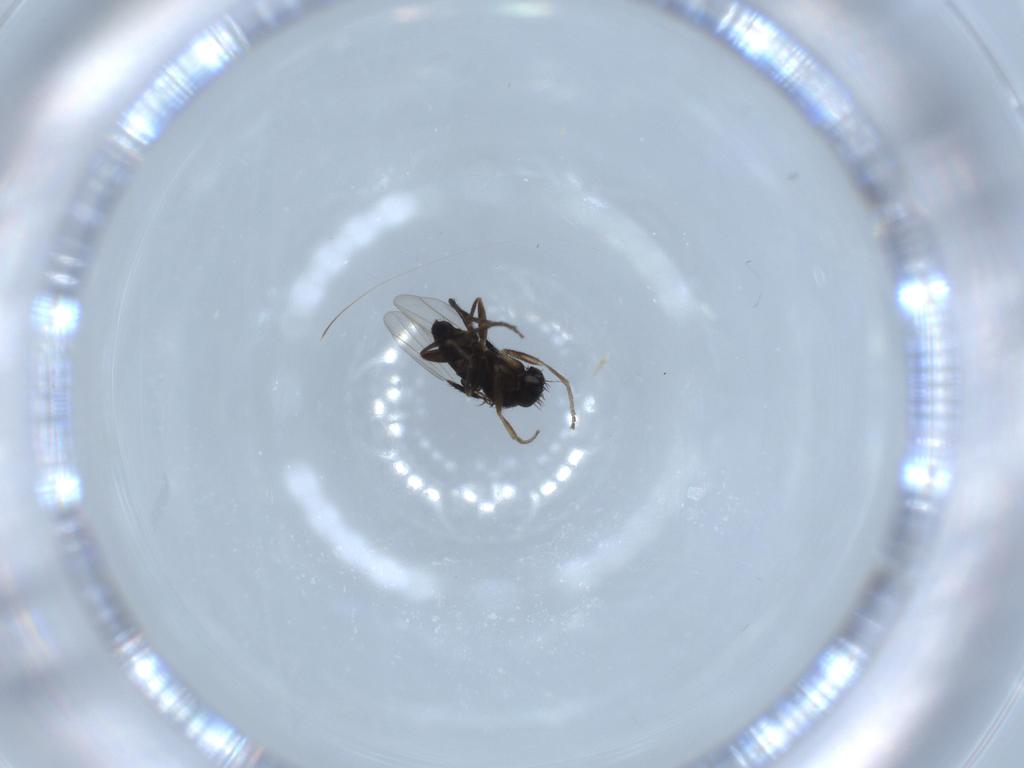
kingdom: Animalia
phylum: Arthropoda
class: Insecta
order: Diptera
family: Phoridae
